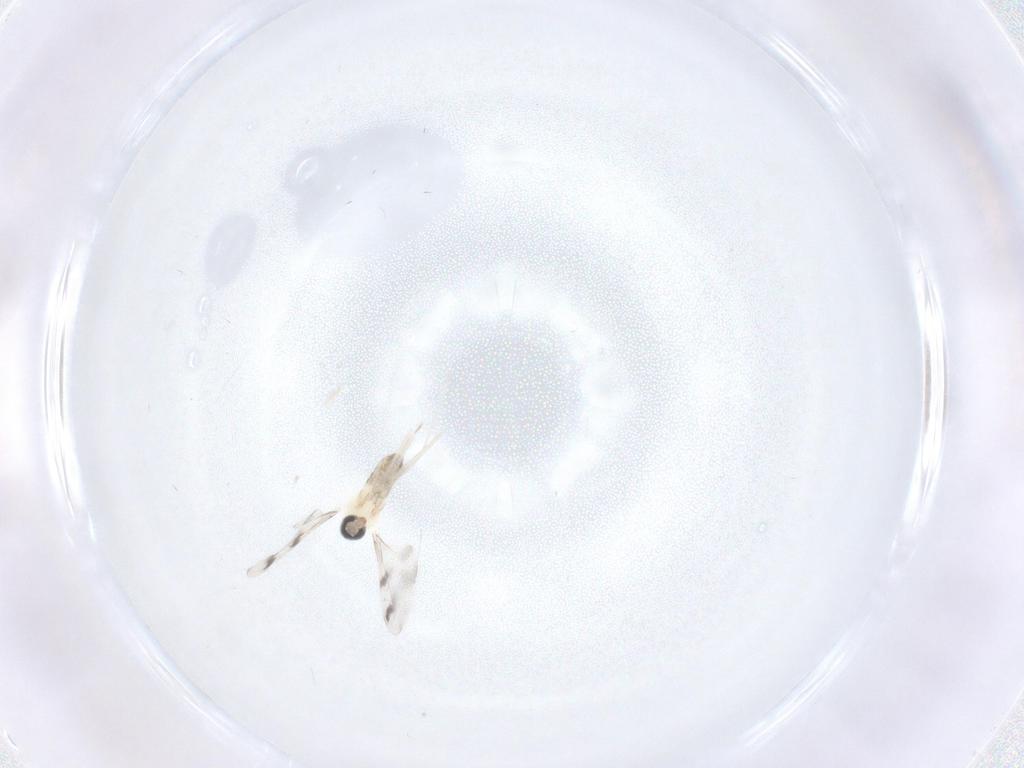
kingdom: Animalia
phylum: Arthropoda
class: Insecta
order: Diptera
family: Cecidomyiidae
